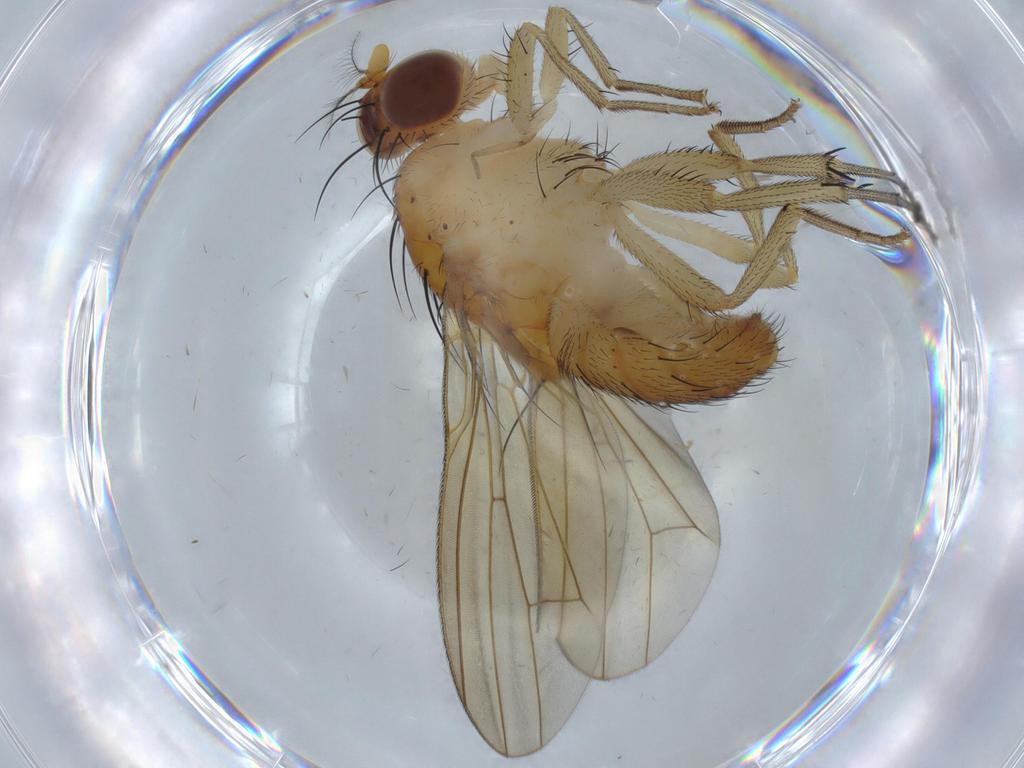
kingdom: Animalia
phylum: Arthropoda
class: Insecta
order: Diptera
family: Ceratopogonidae
